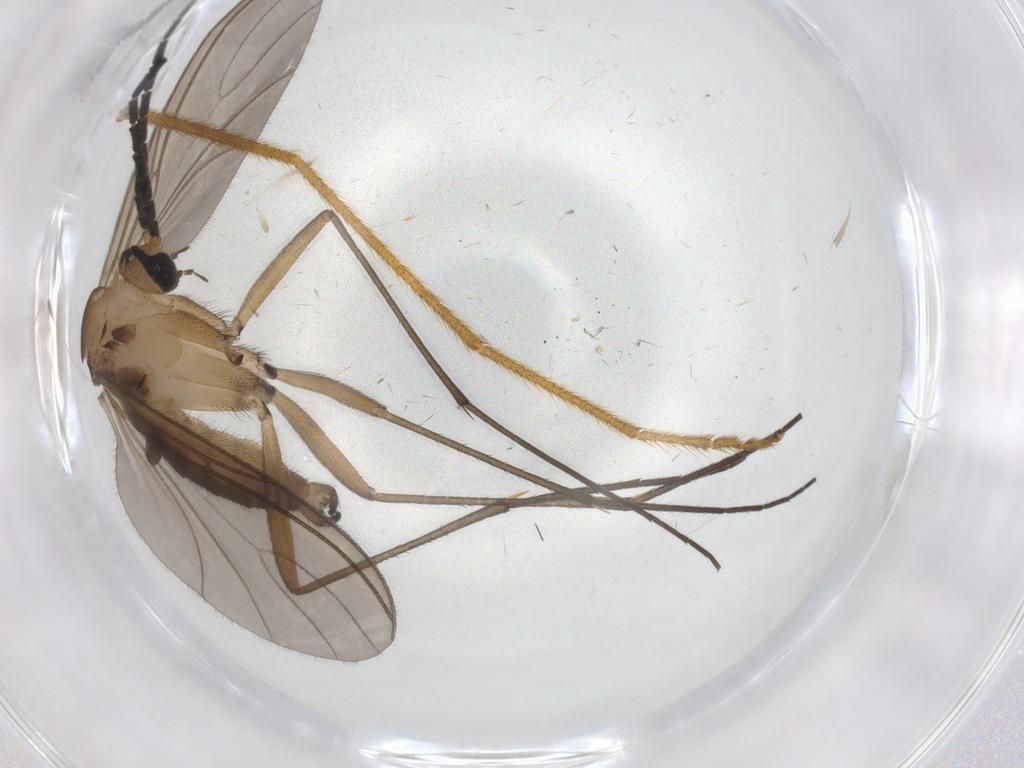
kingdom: Animalia
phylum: Arthropoda
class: Insecta
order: Diptera
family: Limoniidae
